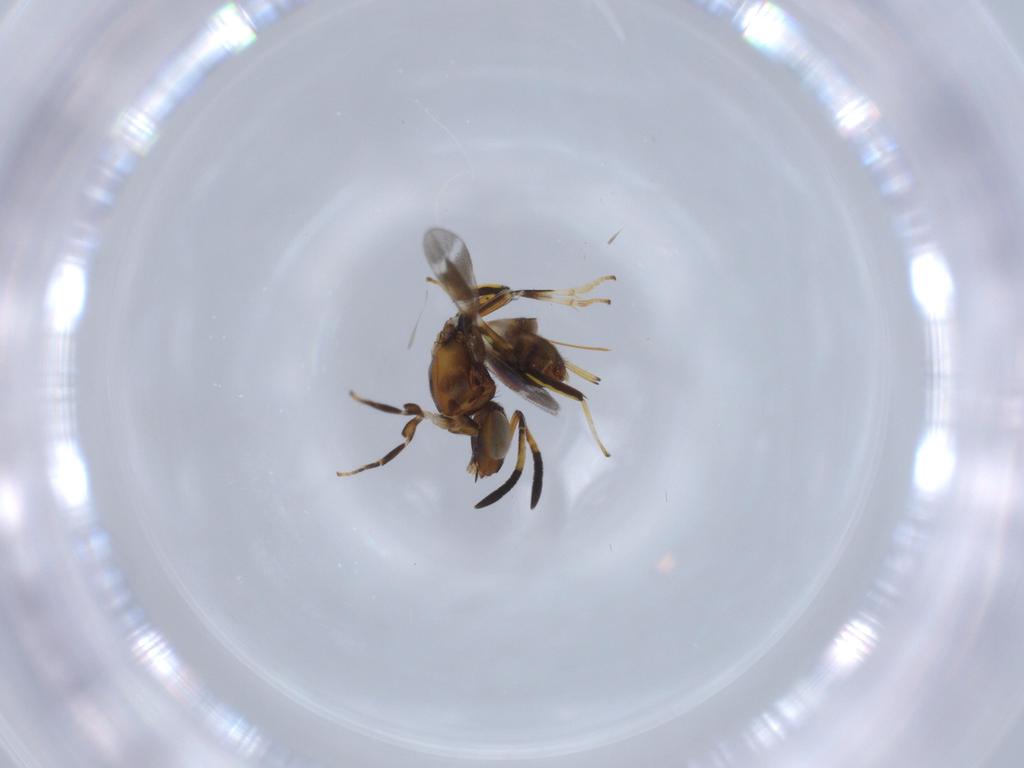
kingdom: Animalia
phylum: Arthropoda
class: Insecta
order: Hymenoptera
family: Eupelmidae
